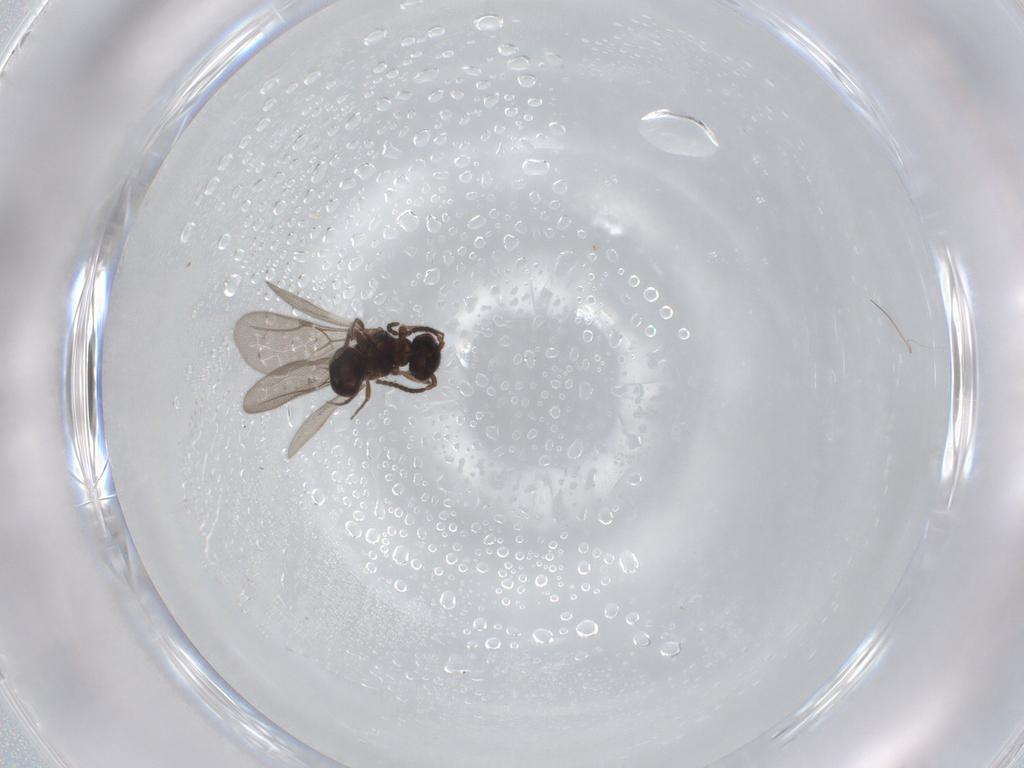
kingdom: Animalia
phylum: Arthropoda
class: Insecta
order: Hymenoptera
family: Bethylidae
